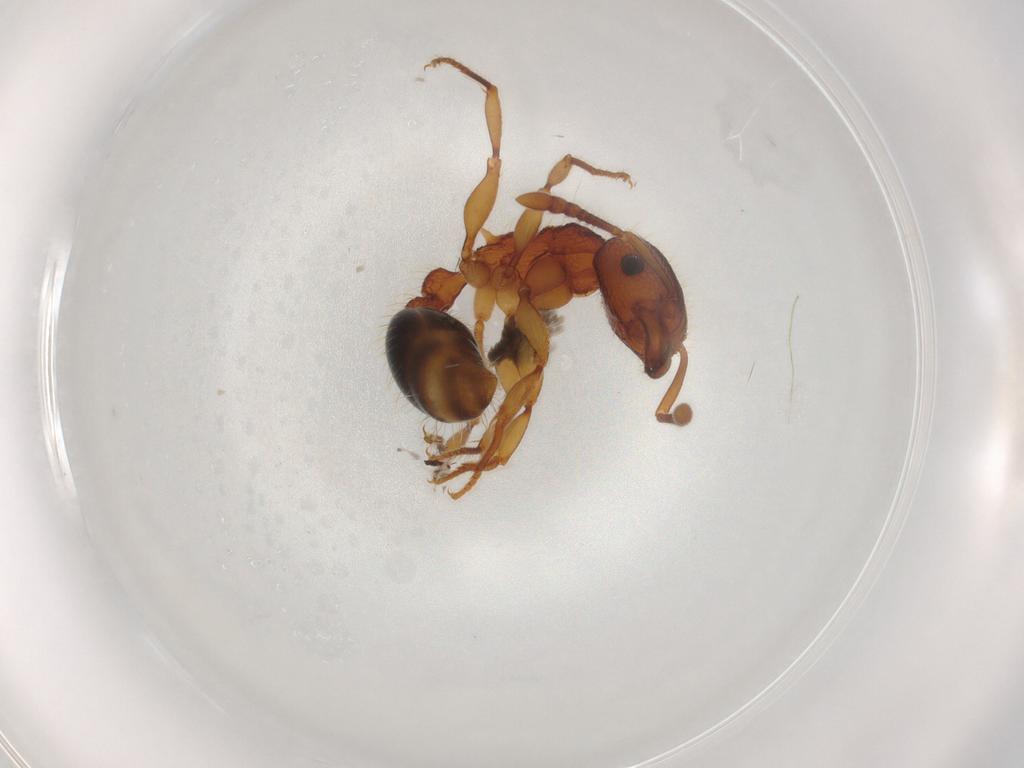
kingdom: Animalia
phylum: Arthropoda
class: Insecta
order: Hymenoptera
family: Formicidae
